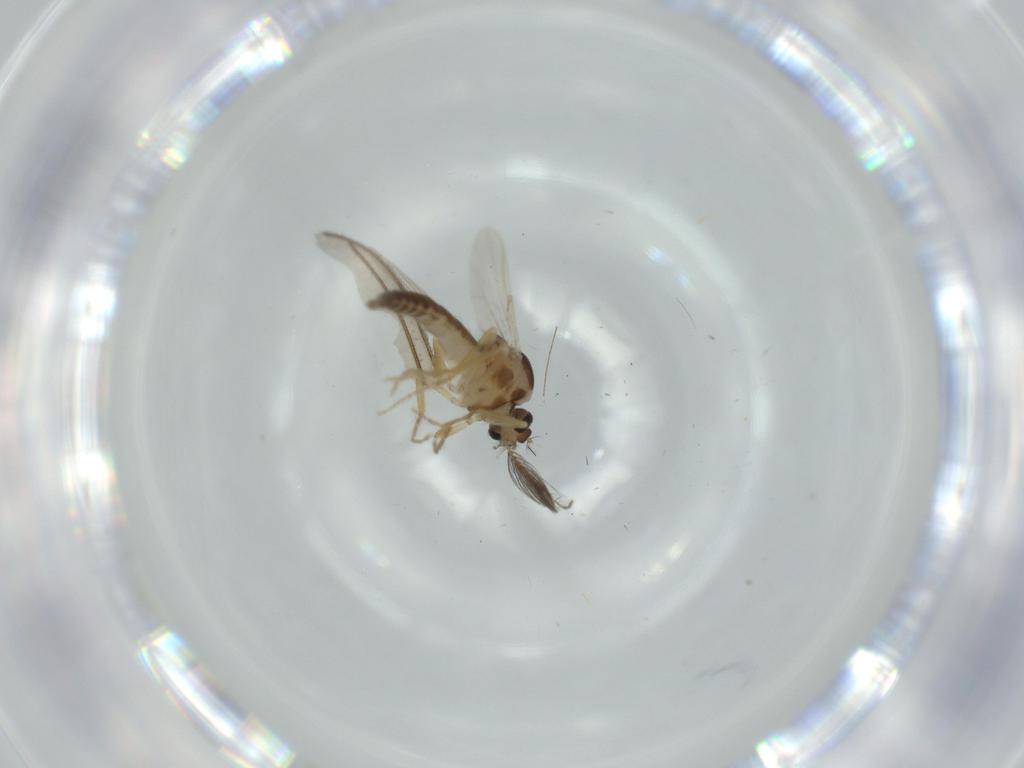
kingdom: Animalia
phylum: Arthropoda
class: Insecta
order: Diptera
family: Ceratopogonidae
